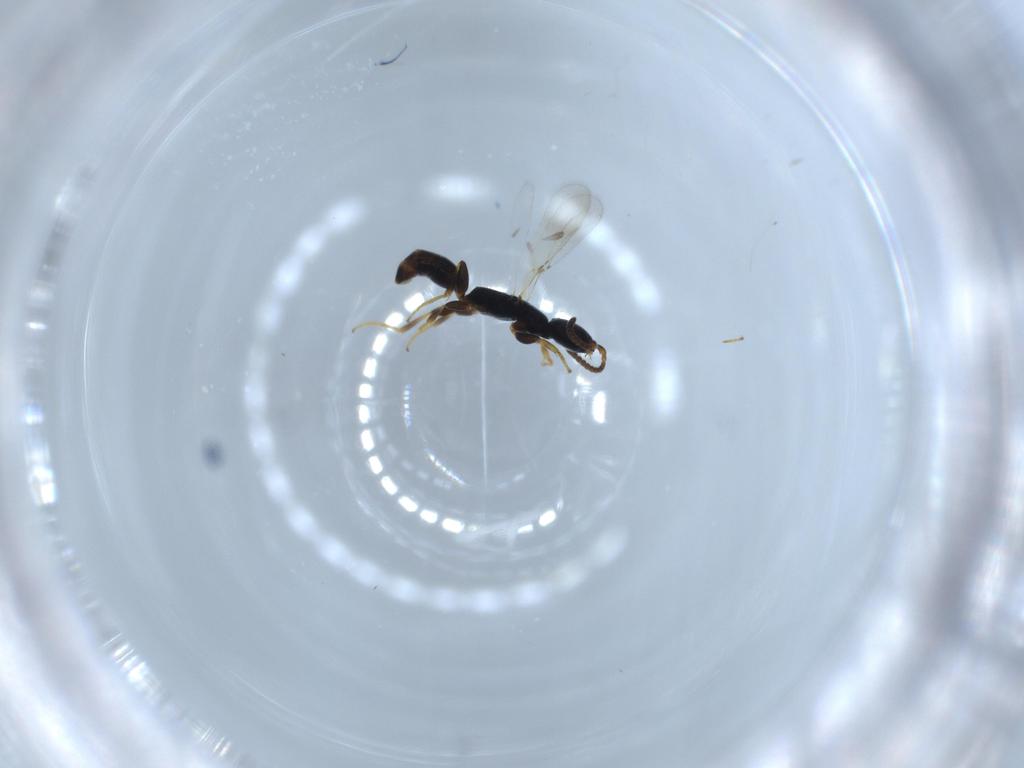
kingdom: Animalia
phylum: Arthropoda
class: Insecta
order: Hymenoptera
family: Bethylidae
